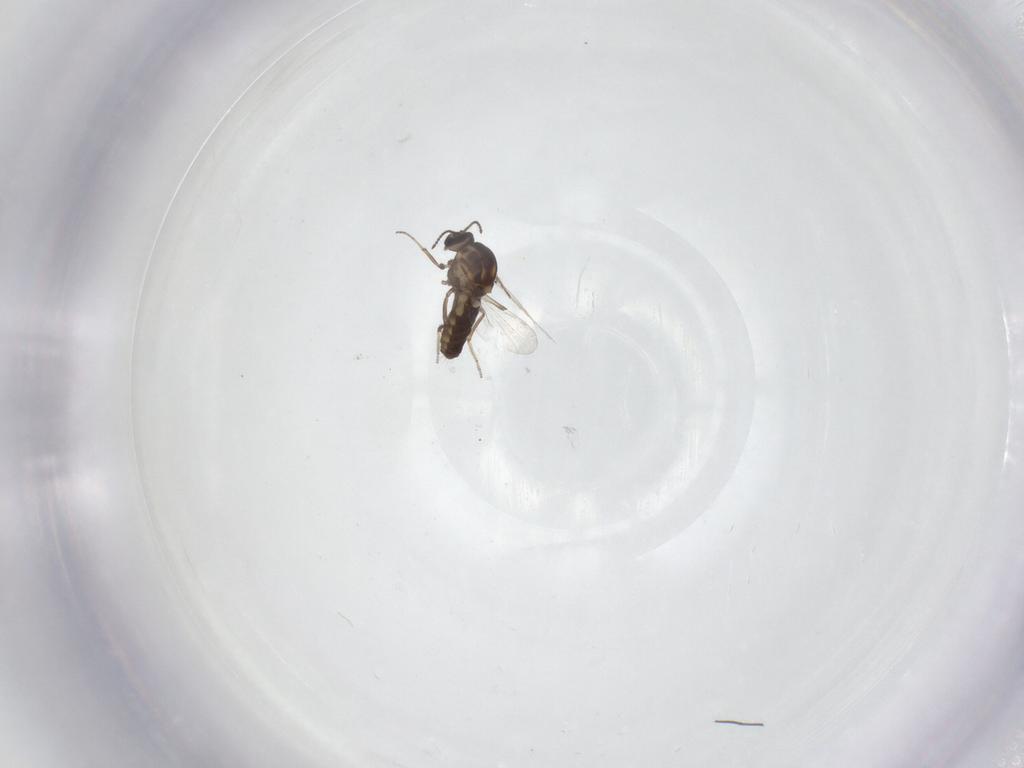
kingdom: Animalia
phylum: Arthropoda
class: Insecta
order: Diptera
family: Ceratopogonidae
